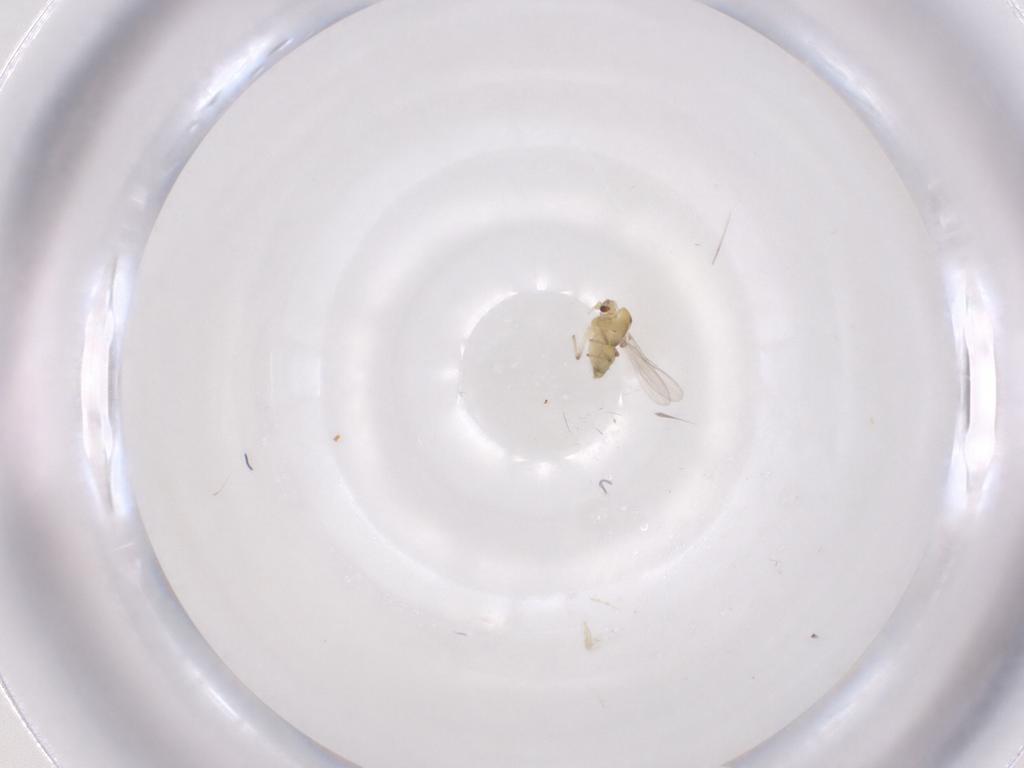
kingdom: Animalia
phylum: Arthropoda
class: Insecta
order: Diptera
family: Chironomidae
